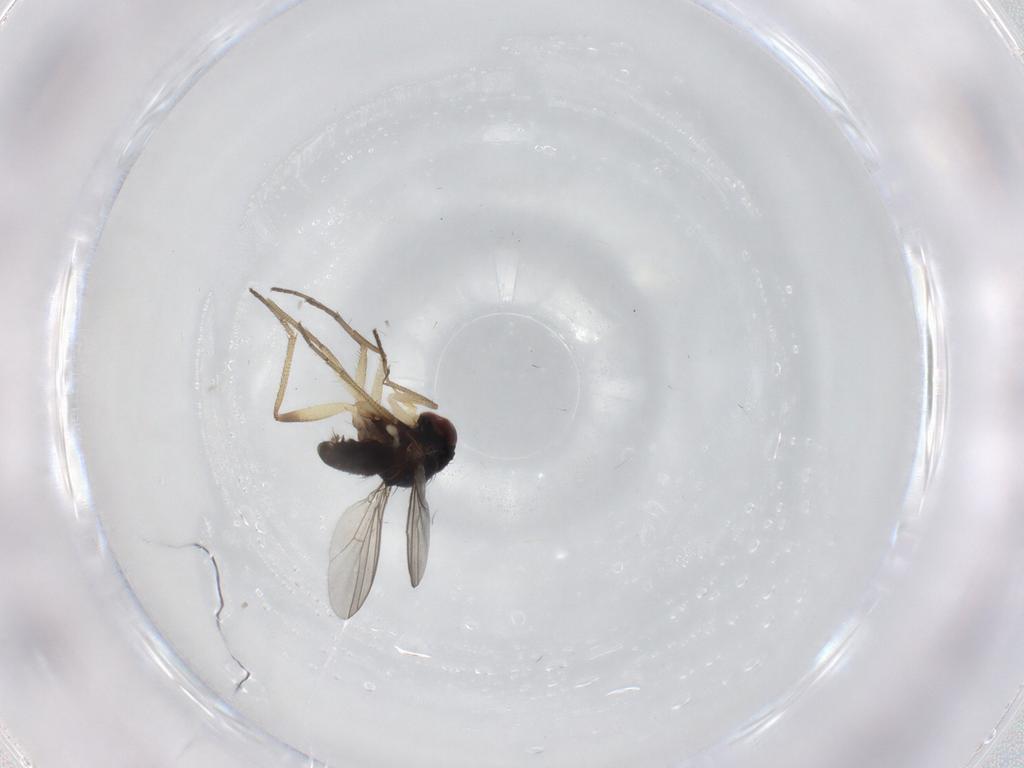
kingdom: Animalia
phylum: Arthropoda
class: Insecta
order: Diptera
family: Dolichopodidae
